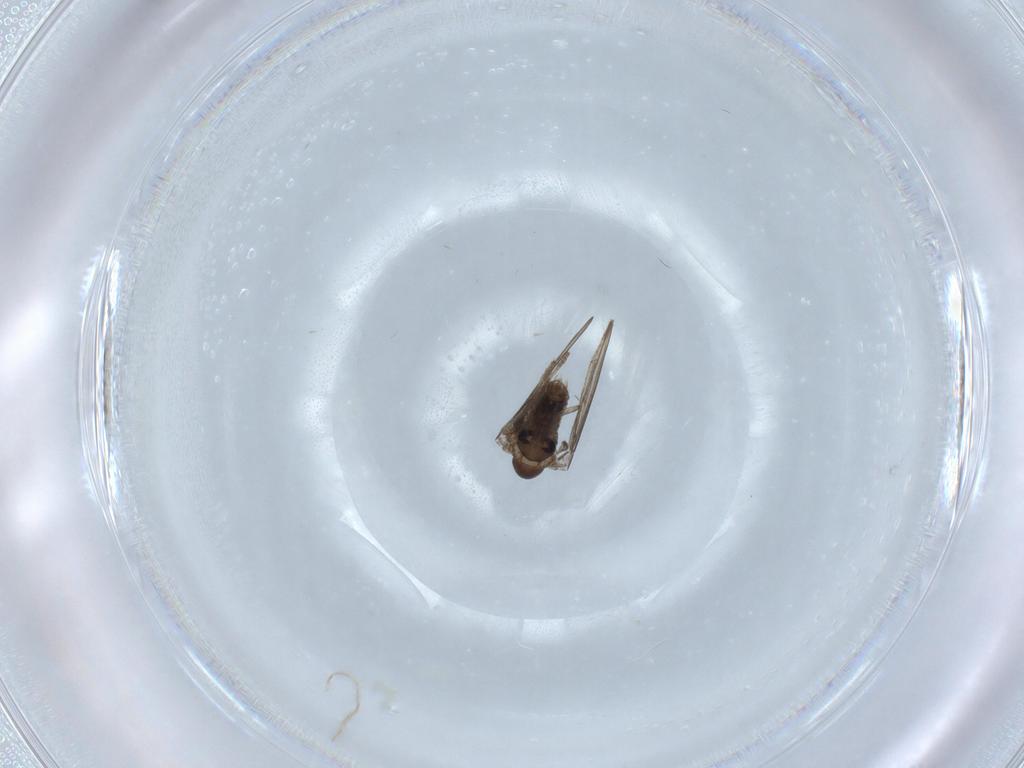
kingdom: Animalia
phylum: Arthropoda
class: Insecta
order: Diptera
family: Psychodidae
